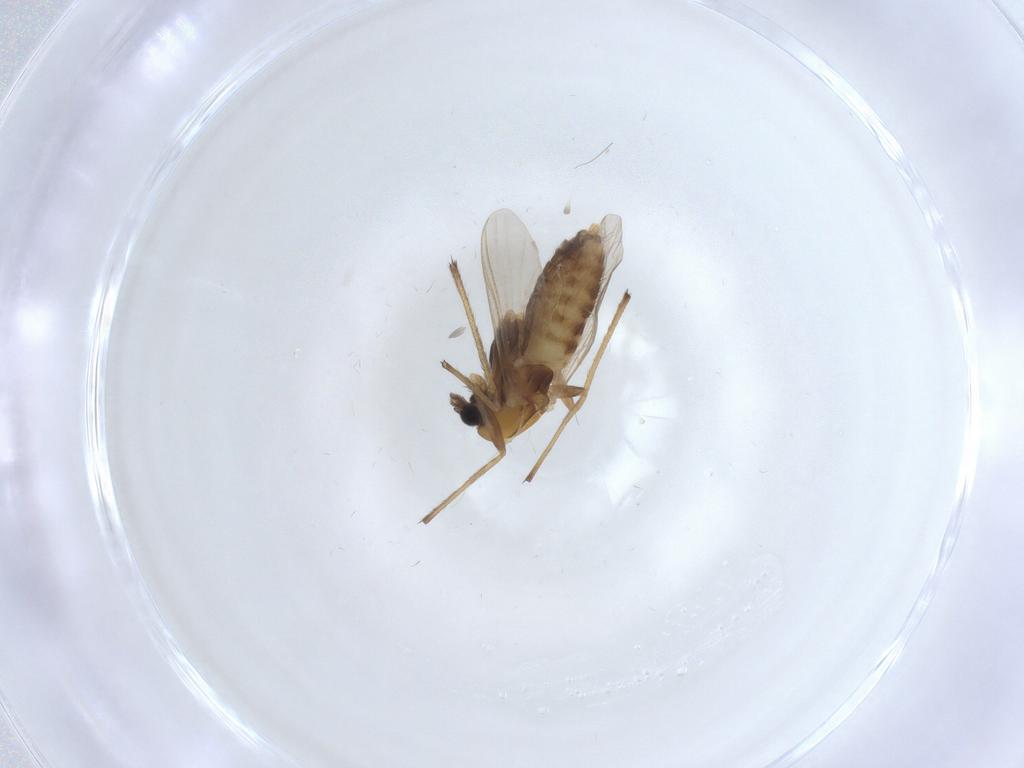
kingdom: Animalia
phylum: Arthropoda
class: Insecta
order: Diptera
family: Chironomidae
